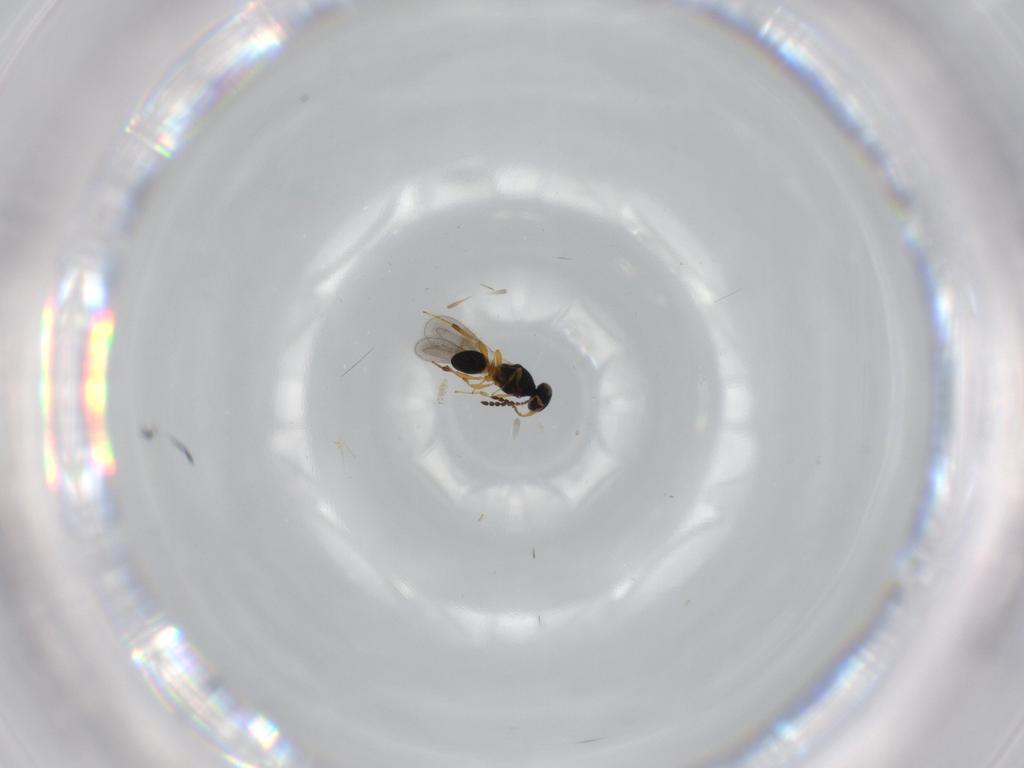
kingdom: Animalia
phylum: Arthropoda
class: Insecta
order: Hymenoptera
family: Platygastridae
